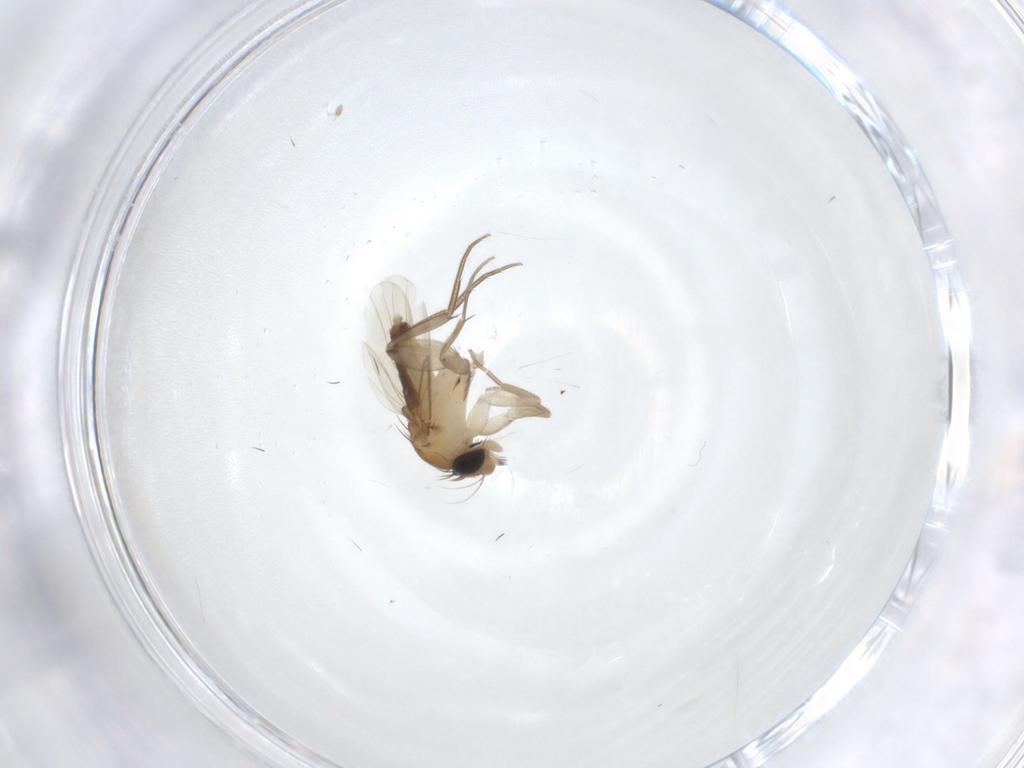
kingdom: Animalia
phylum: Arthropoda
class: Insecta
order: Diptera
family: Phoridae
